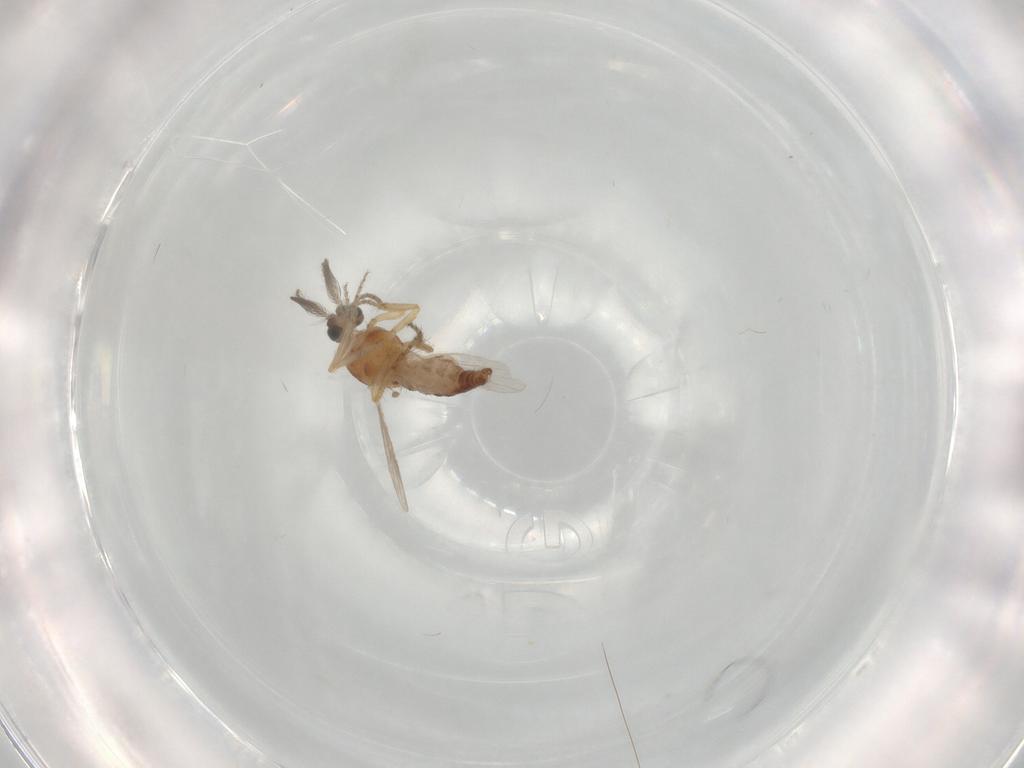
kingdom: Animalia
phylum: Arthropoda
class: Insecta
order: Diptera
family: Ceratopogonidae
